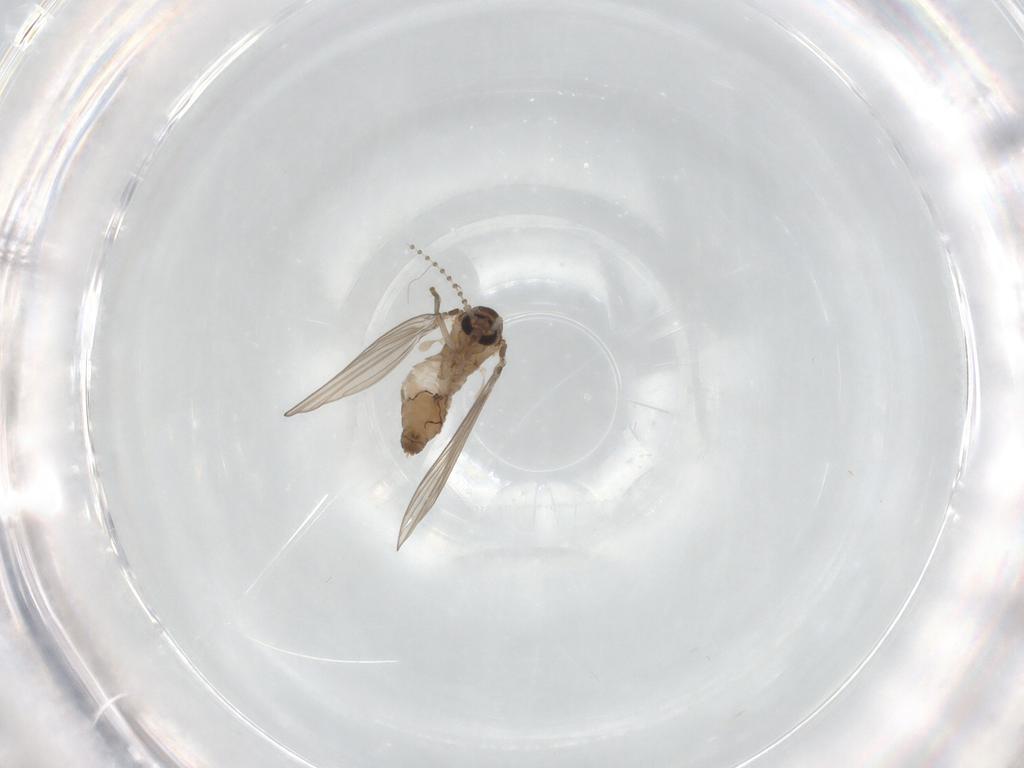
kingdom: Animalia
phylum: Arthropoda
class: Insecta
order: Diptera
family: Psychodidae
